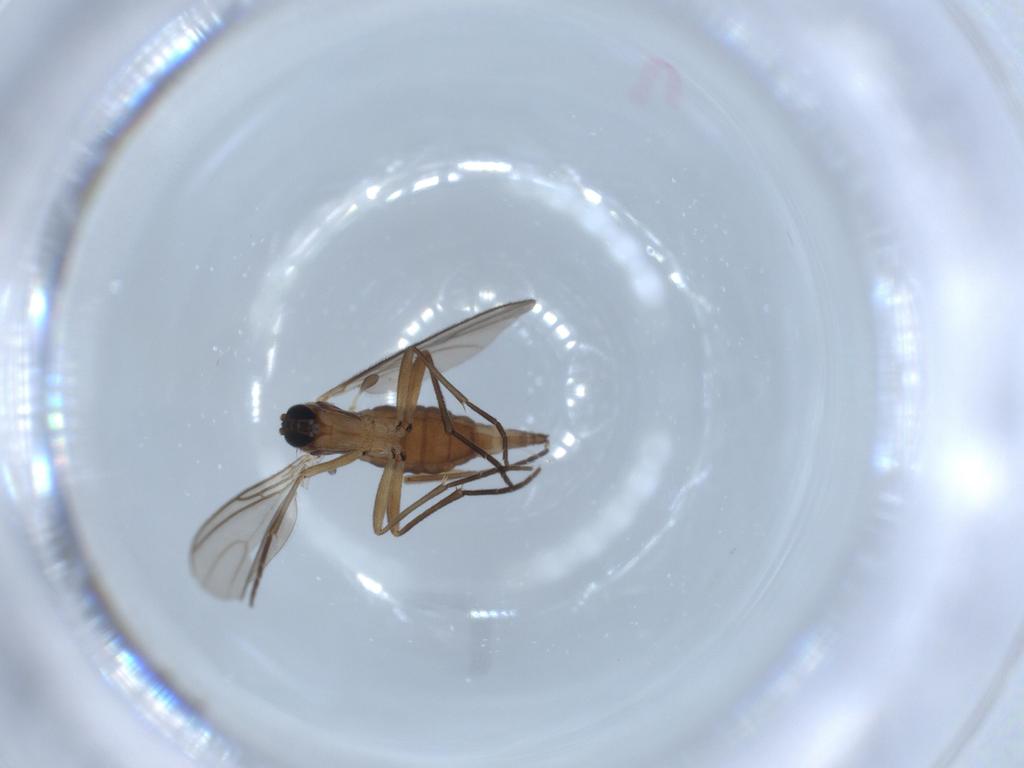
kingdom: Animalia
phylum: Arthropoda
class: Insecta
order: Diptera
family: Sciaridae
